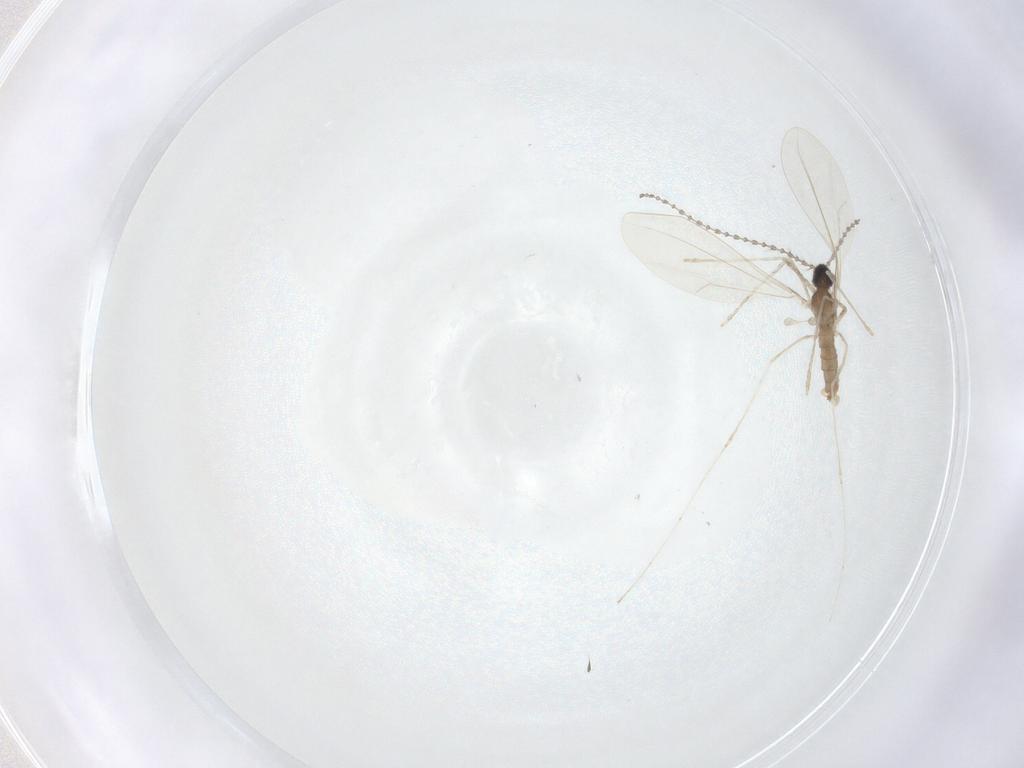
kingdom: Animalia
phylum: Arthropoda
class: Insecta
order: Diptera
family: Cecidomyiidae
